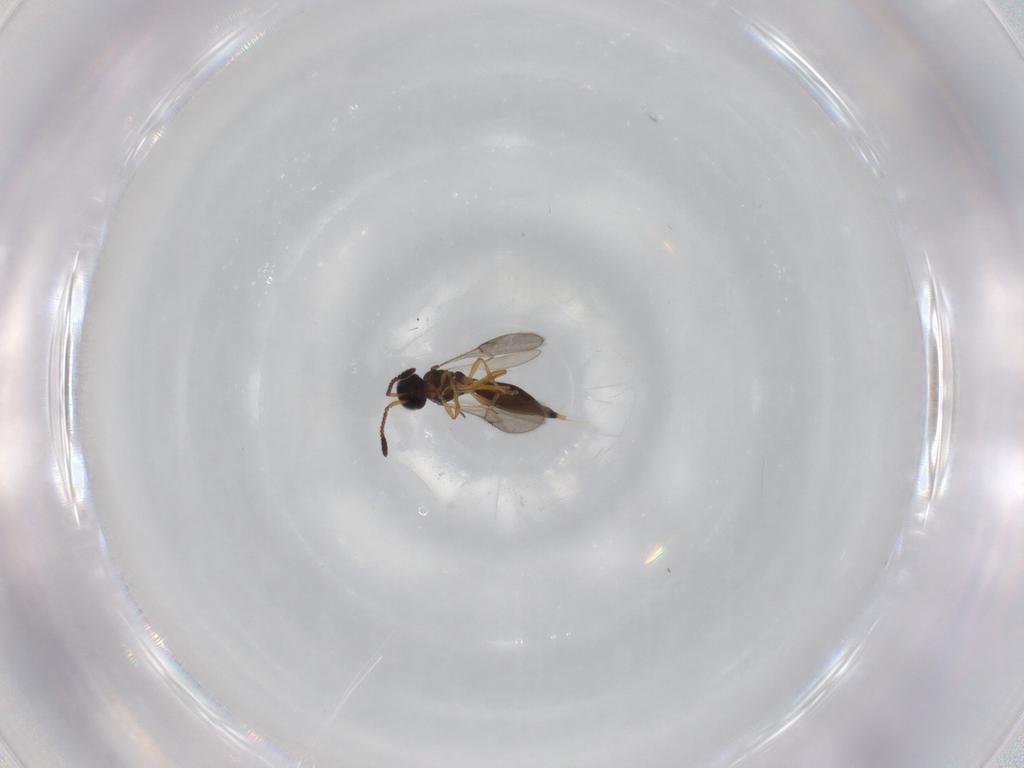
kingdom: Animalia
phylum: Arthropoda
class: Insecta
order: Hymenoptera
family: Scelionidae
